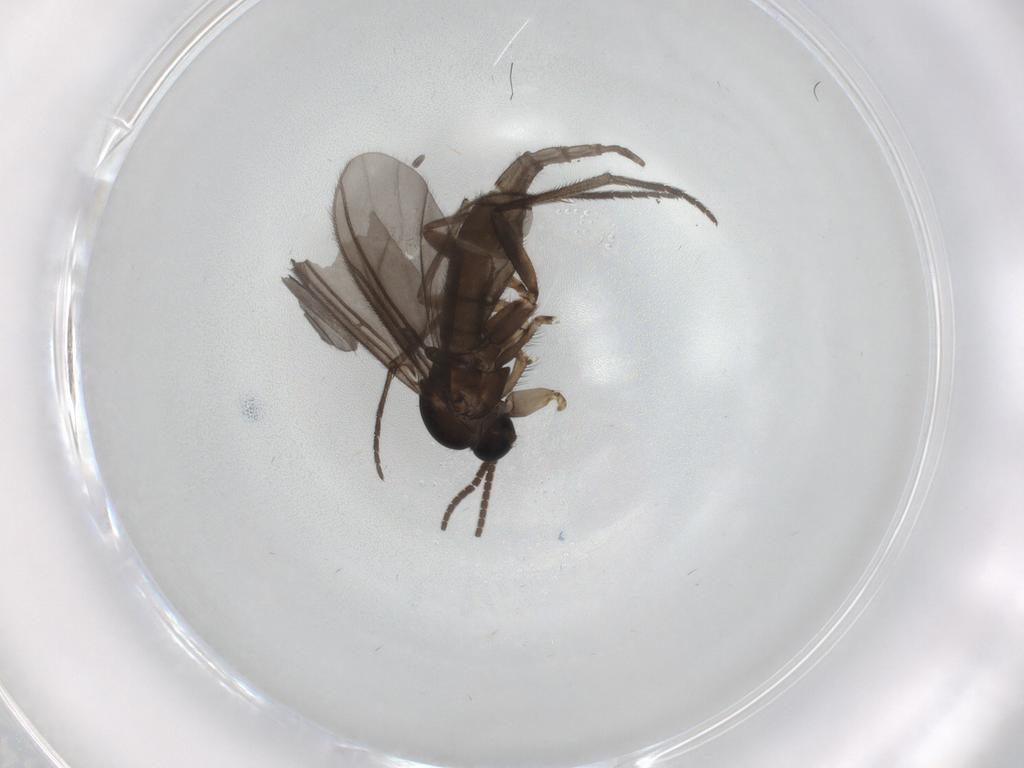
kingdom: Animalia
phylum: Arthropoda
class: Insecta
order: Diptera
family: Sciaridae
